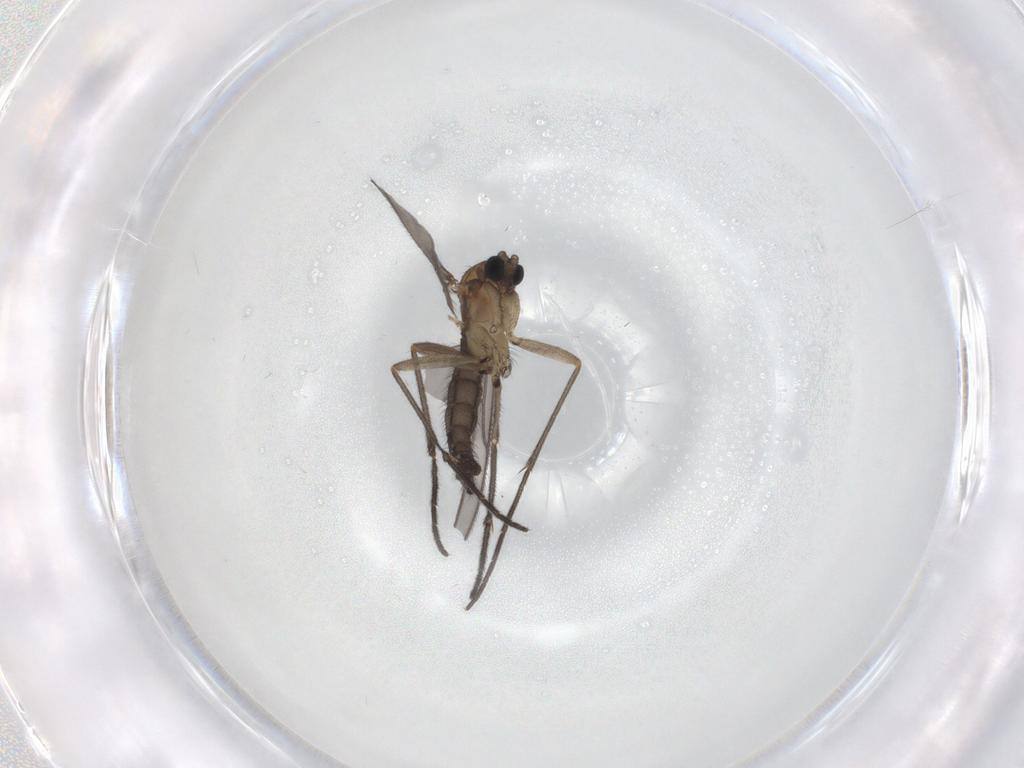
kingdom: Animalia
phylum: Arthropoda
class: Insecta
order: Diptera
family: Sciaridae
